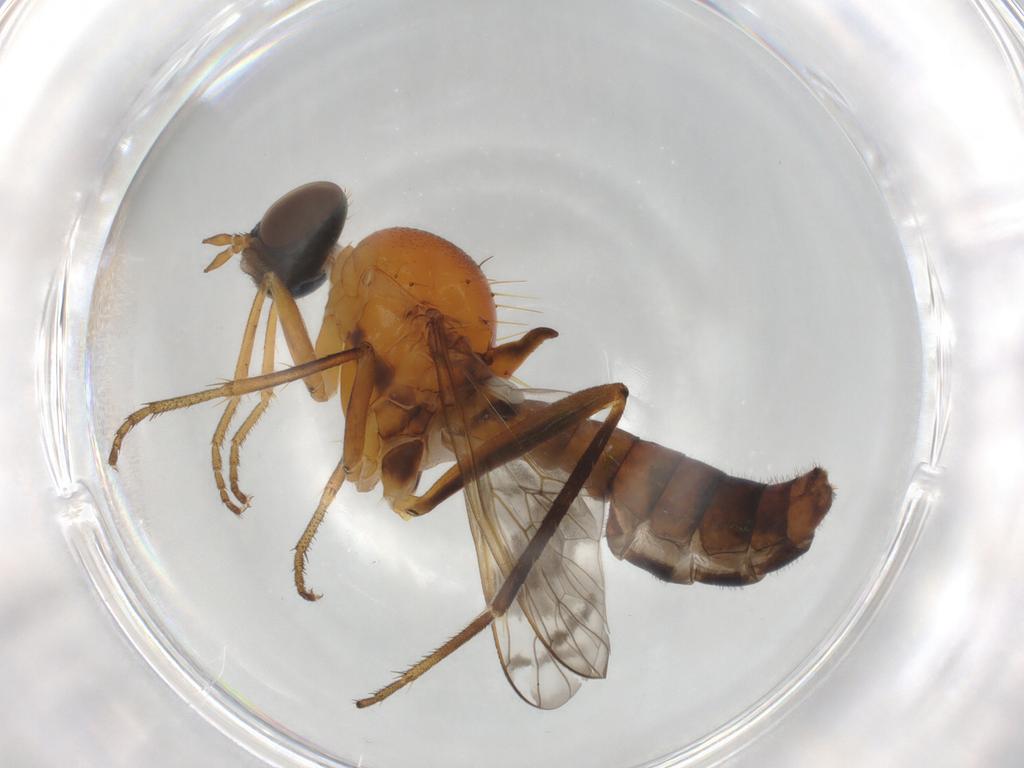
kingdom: Animalia
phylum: Arthropoda
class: Insecta
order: Diptera
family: Therevidae
